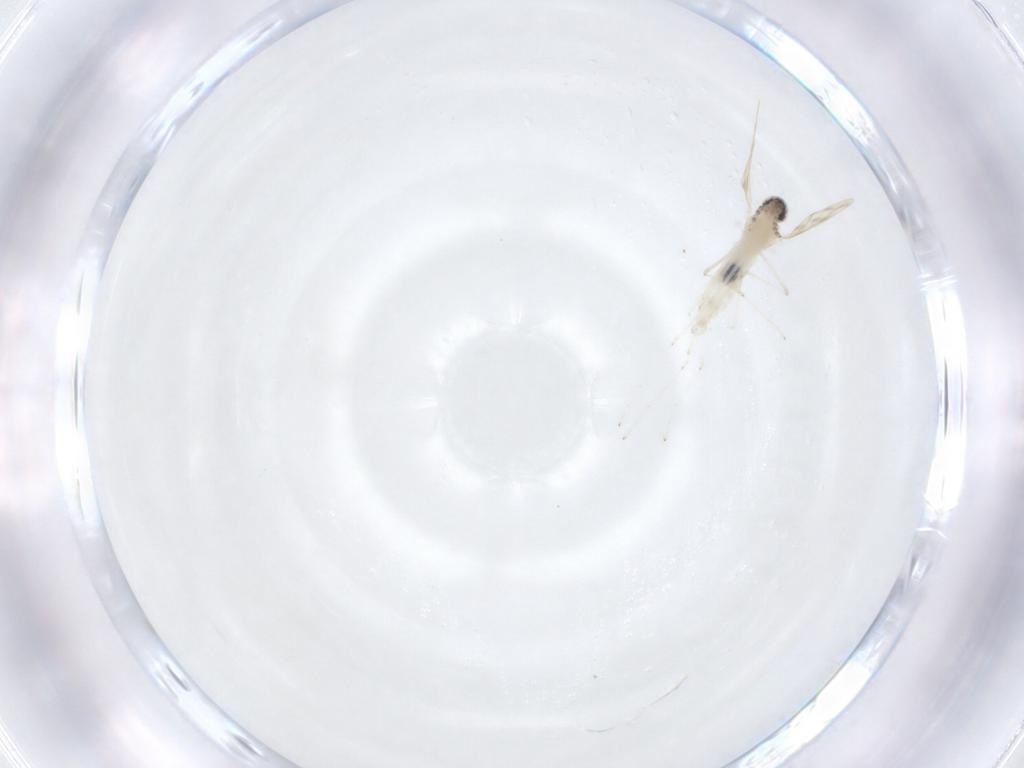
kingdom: Animalia
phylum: Arthropoda
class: Insecta
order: Diptera
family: Cecidomyiidae
